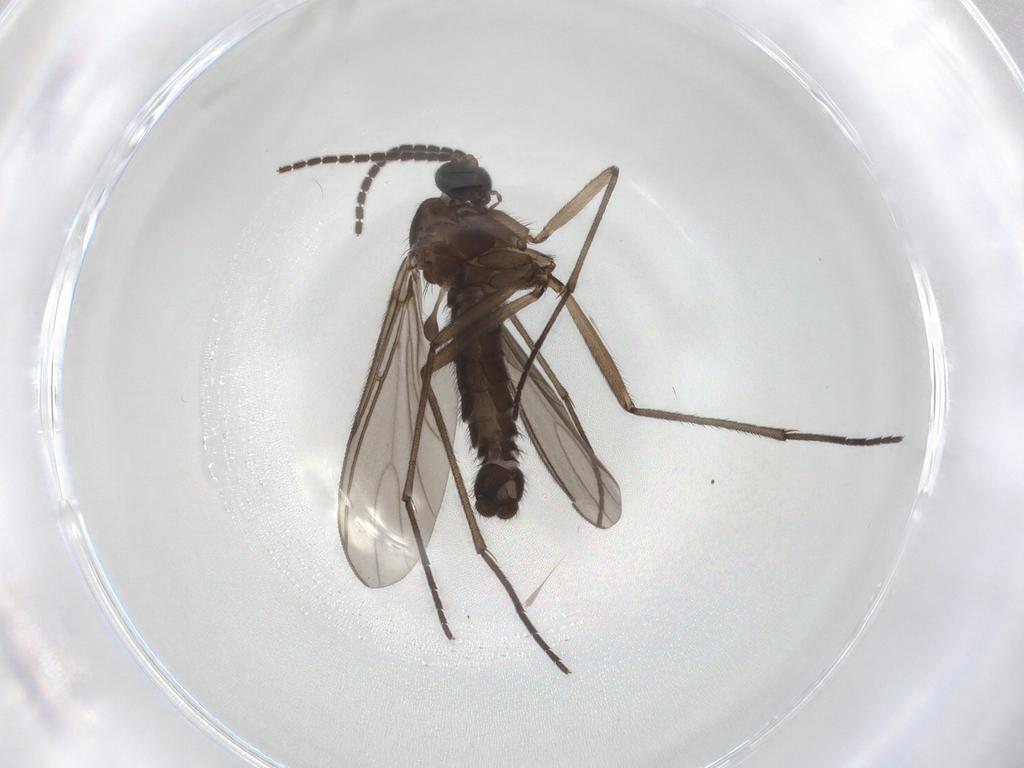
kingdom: Animalia
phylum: Arthropoda
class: Insecta
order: Diptera
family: Sciaridae
